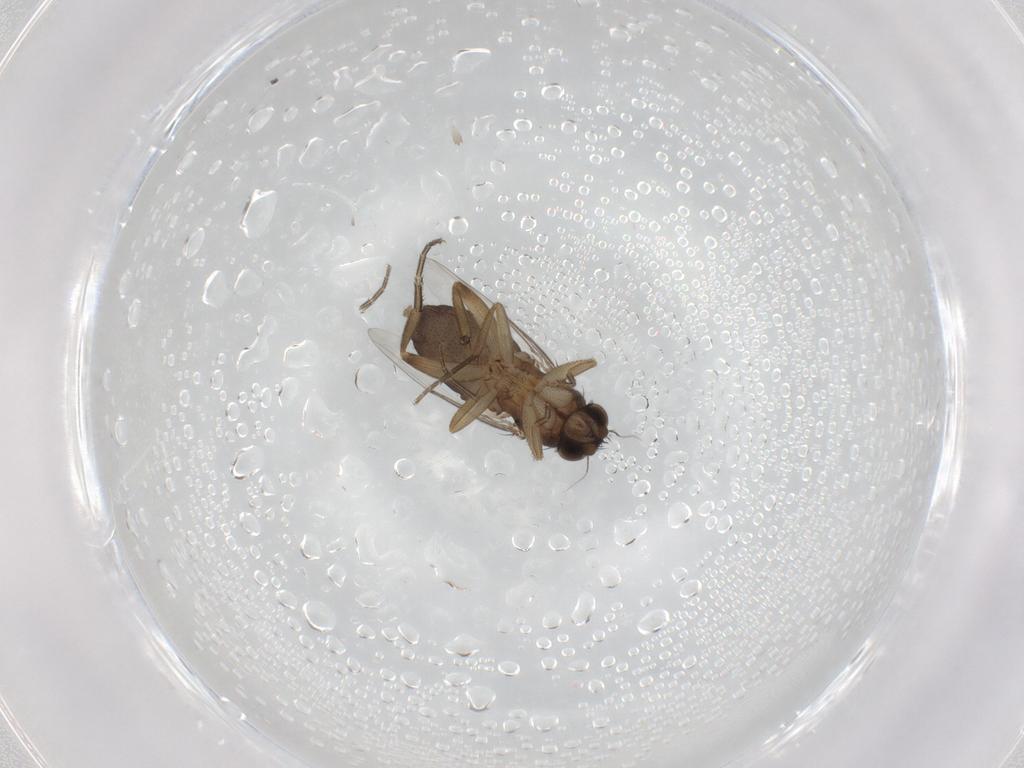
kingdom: Animalia
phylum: Arthropoda
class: Insecta
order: Diptera
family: Phoridae
